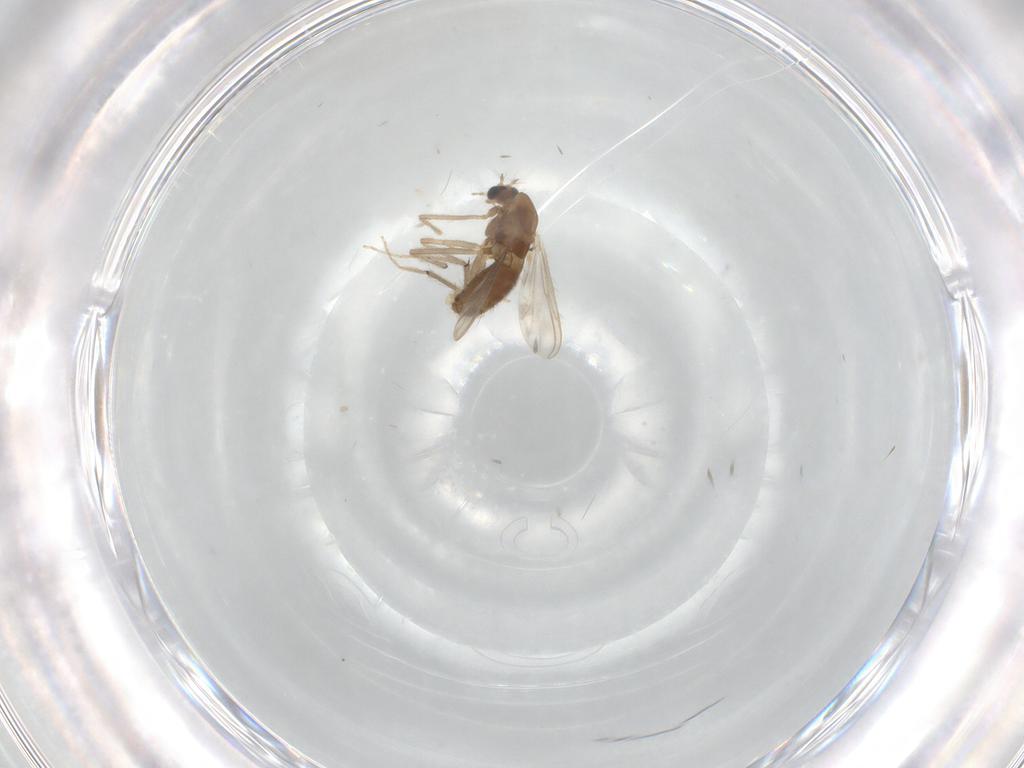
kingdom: Animalia
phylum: Arthropoda
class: Insecta
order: Diptera
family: Chironomidae
